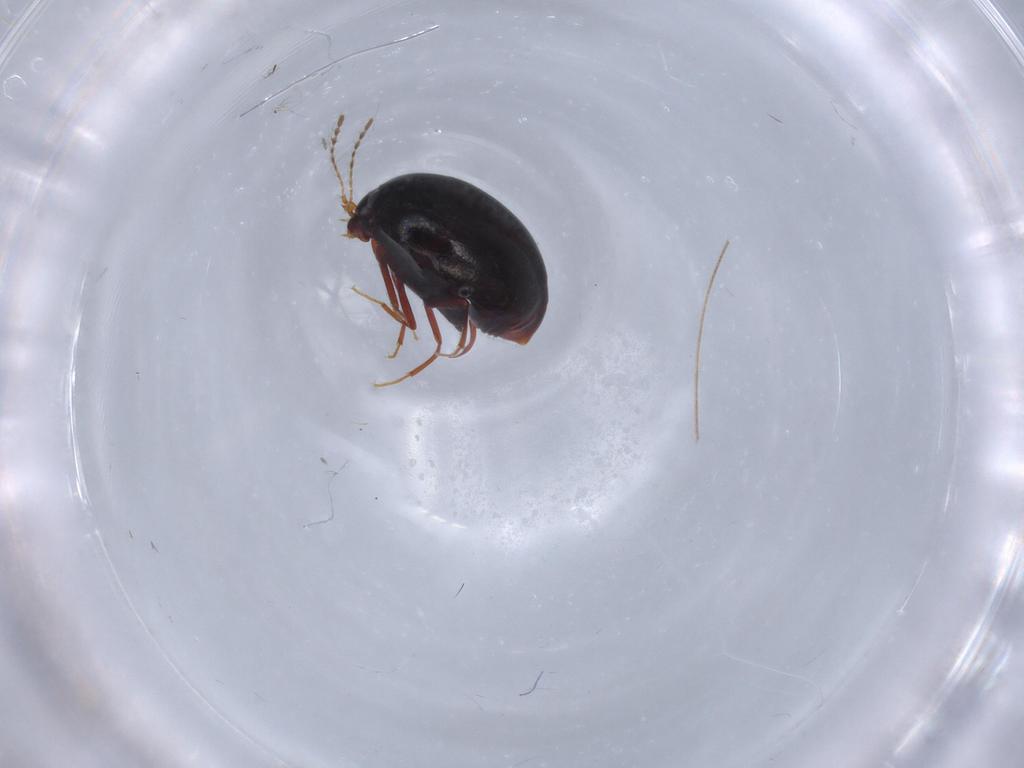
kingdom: Animalia
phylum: Arthropoda
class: Insecta
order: Coleoptera
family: Staphylinidae
